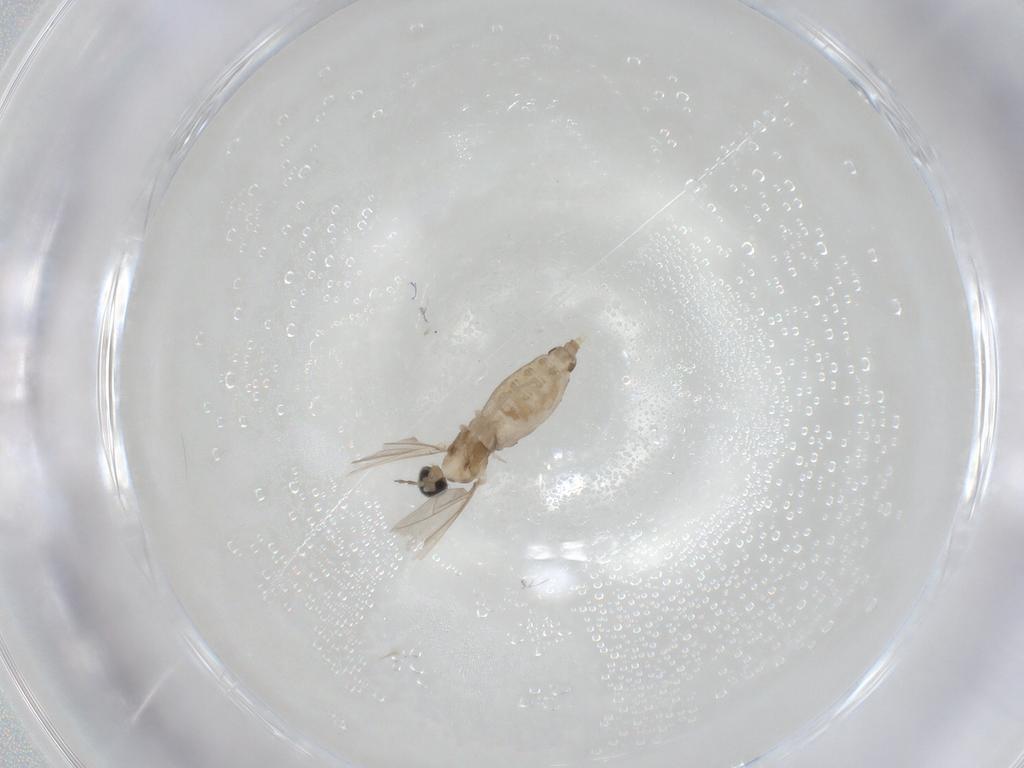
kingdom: Animalia
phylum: Arthropoda
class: Insecta
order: Diptera
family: Cecidomyiidae
